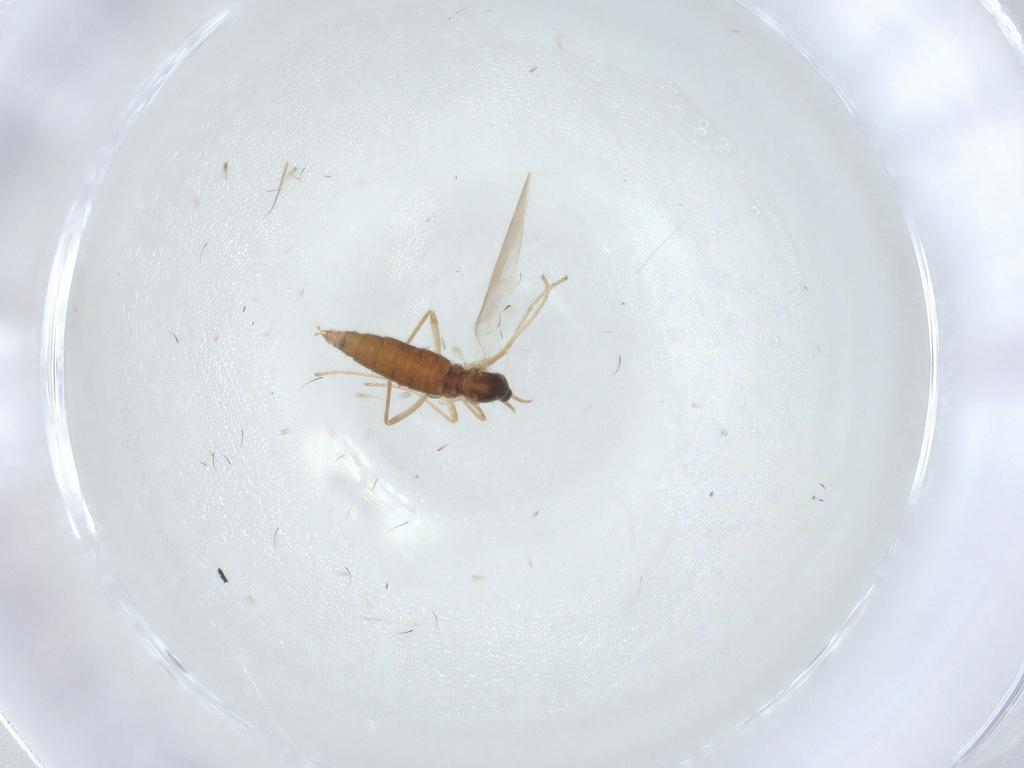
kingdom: Animalia
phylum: Arthropoda
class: Insecta
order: Diptera
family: Cecidomyiidae
